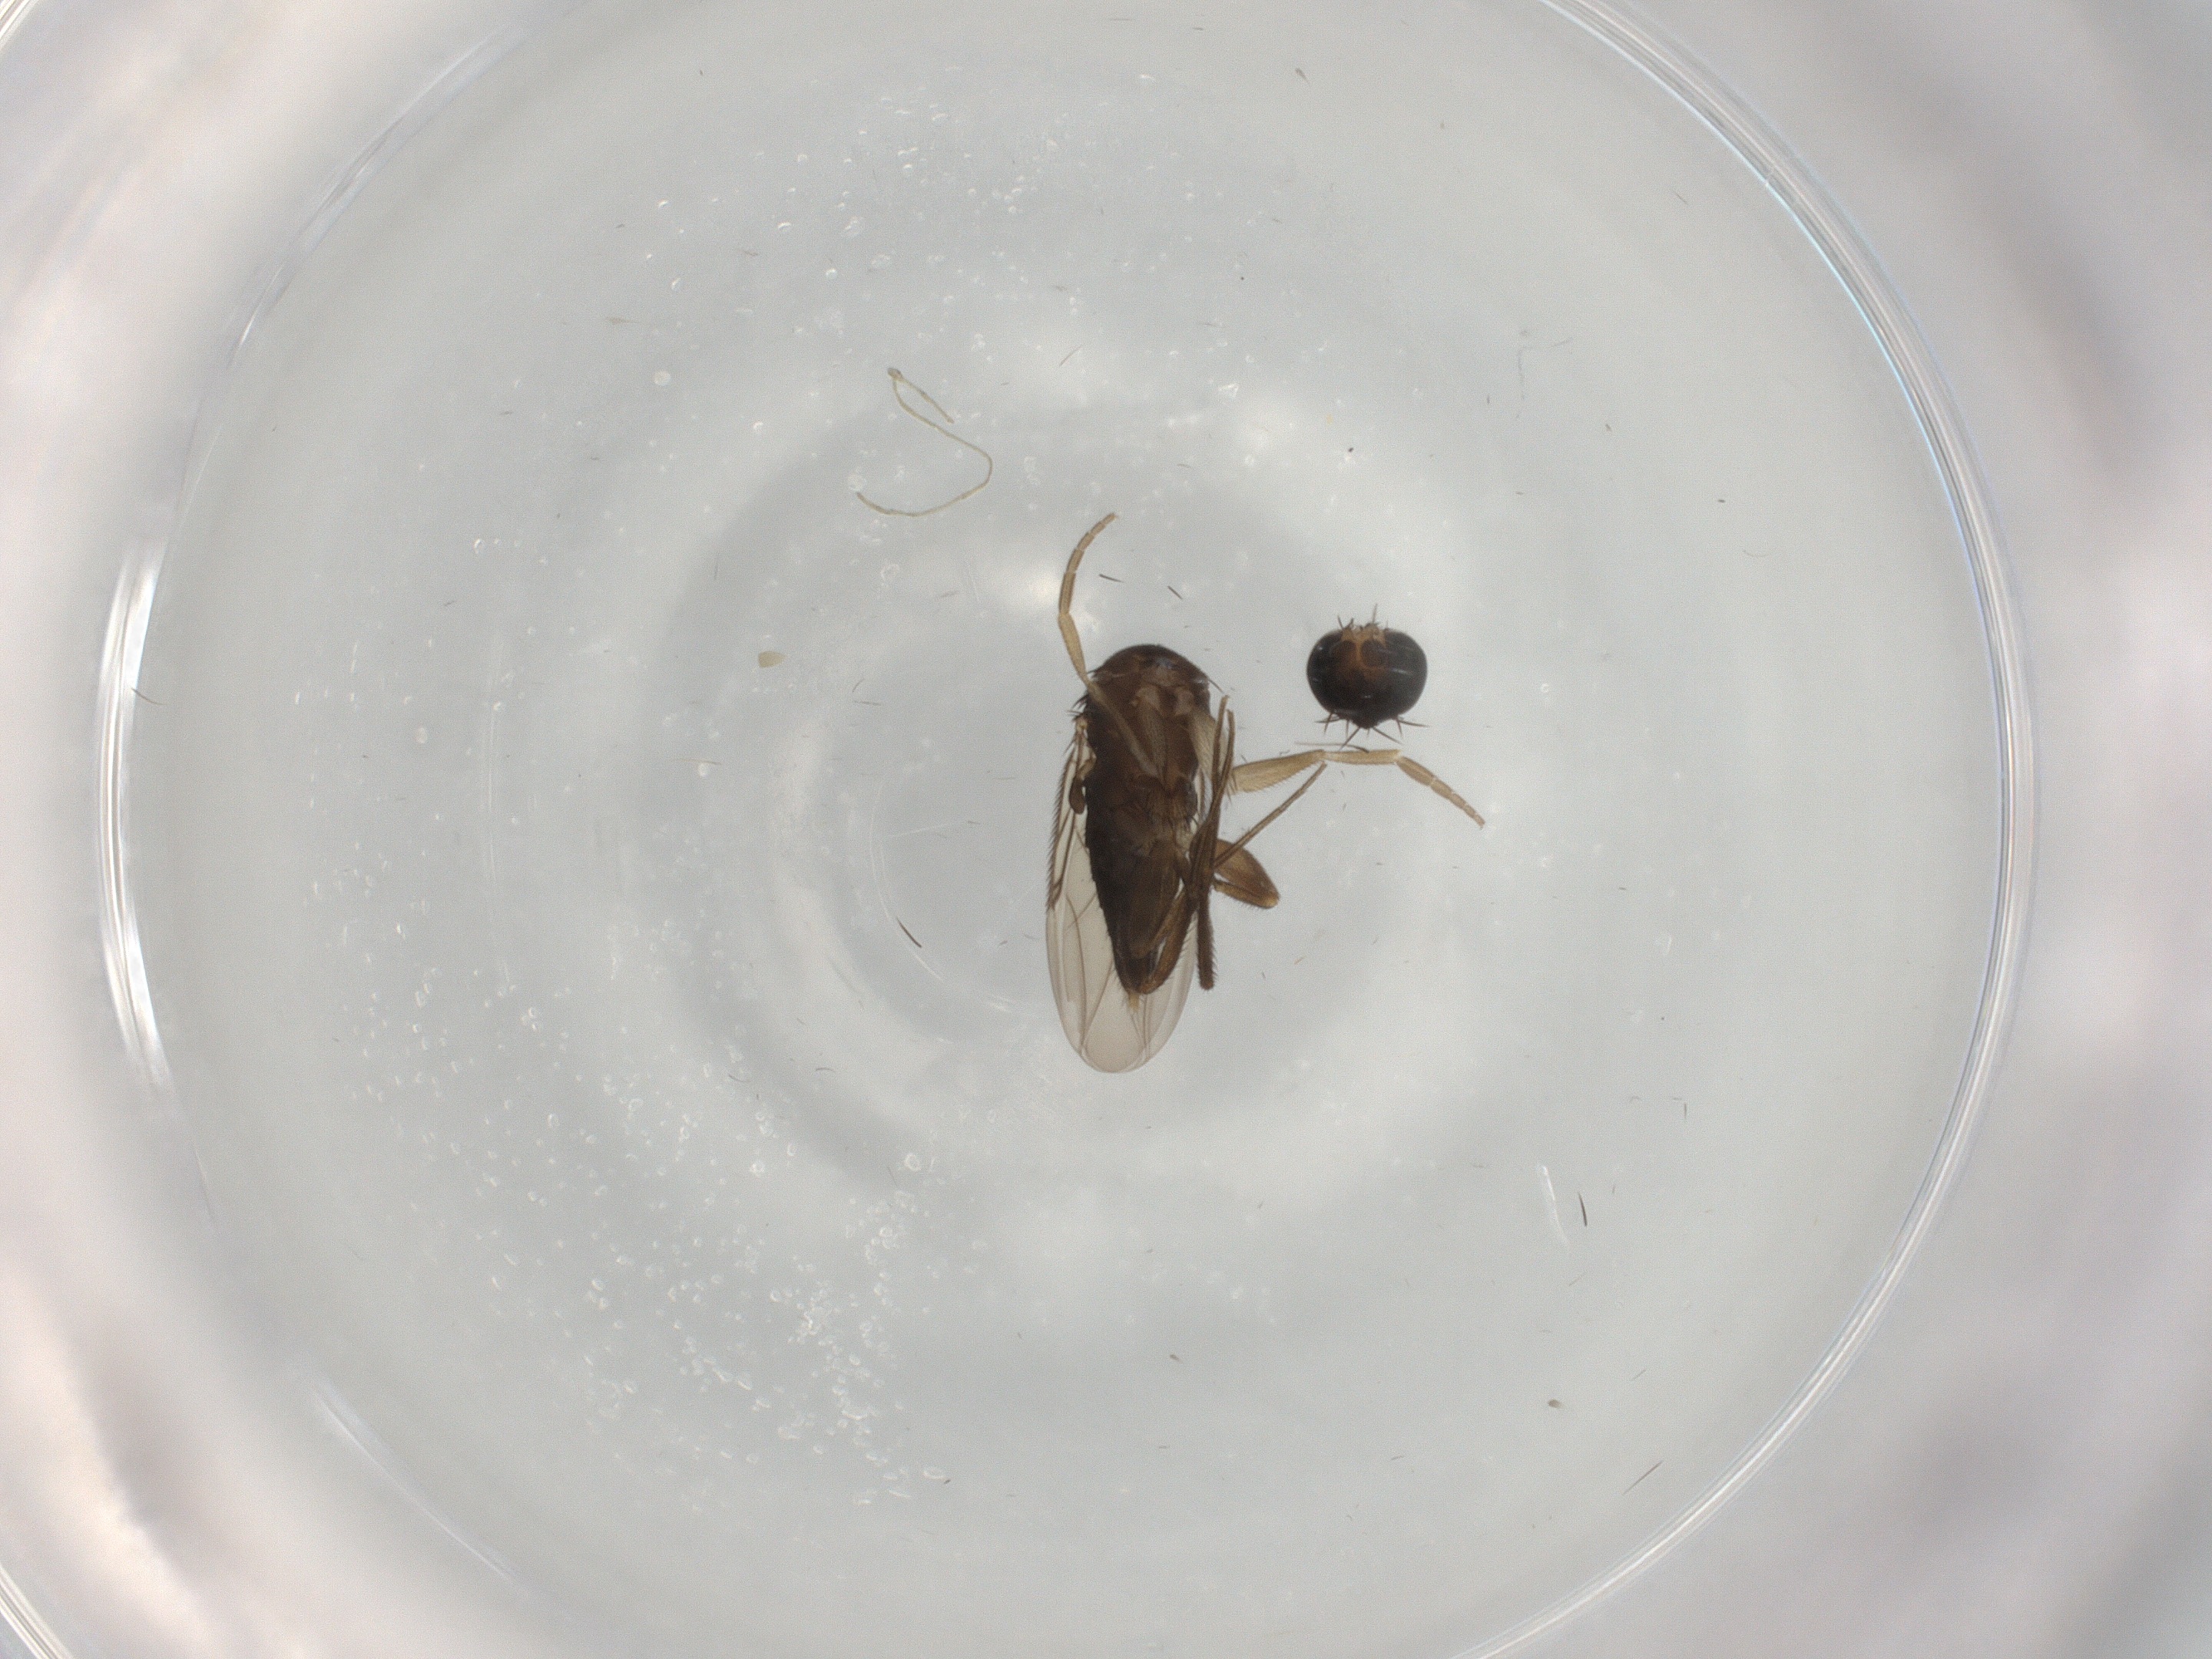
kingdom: Animalia
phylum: Arthropoda
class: Insecta
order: Diptera
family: Phoridae
